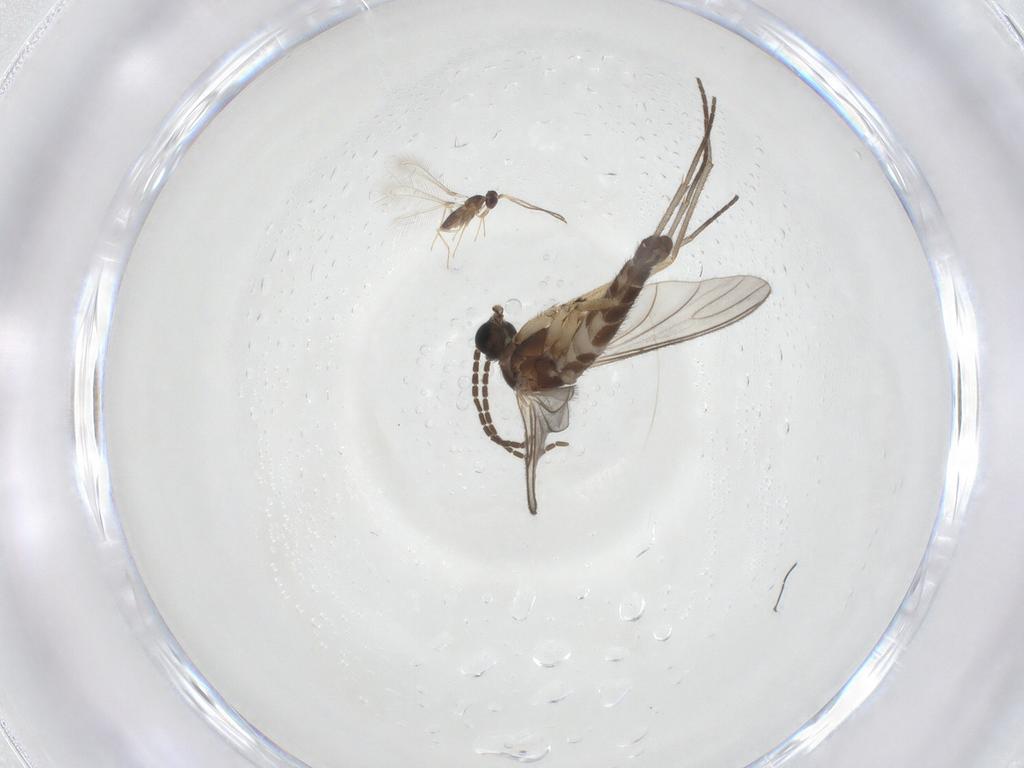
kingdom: Animalia
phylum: Arthropoda
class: Insecta
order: Diptera
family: Sciaridae
